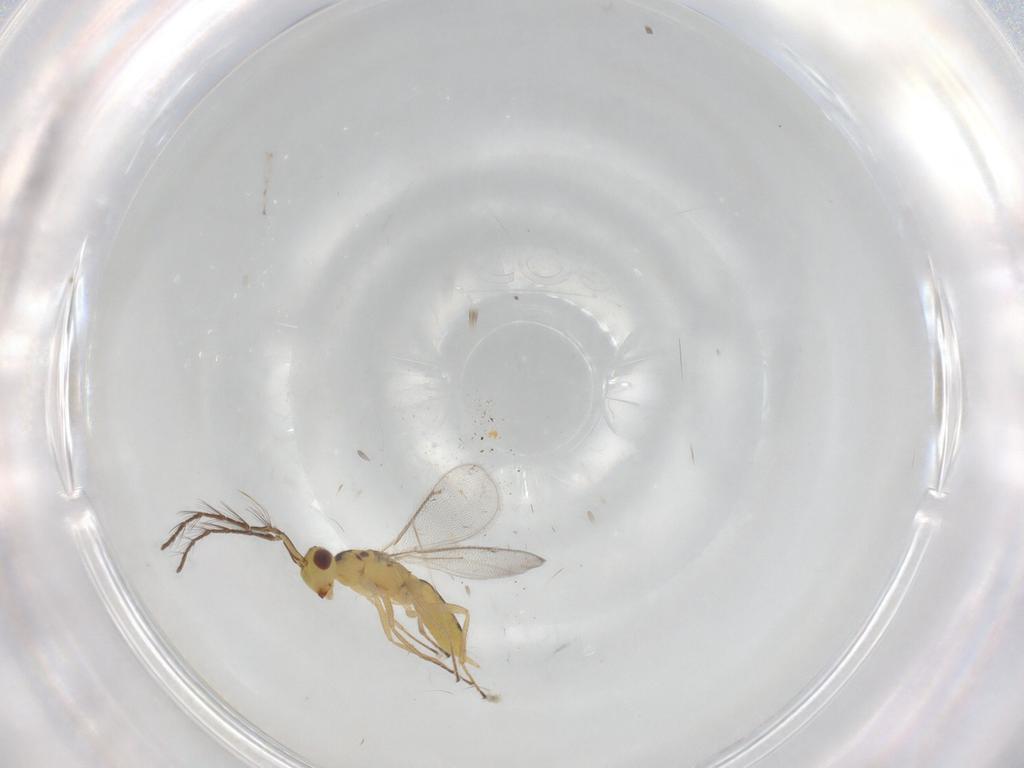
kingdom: Animalia
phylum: Arthropoda
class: Insecta
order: Hymenoptera
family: Eulophidae
